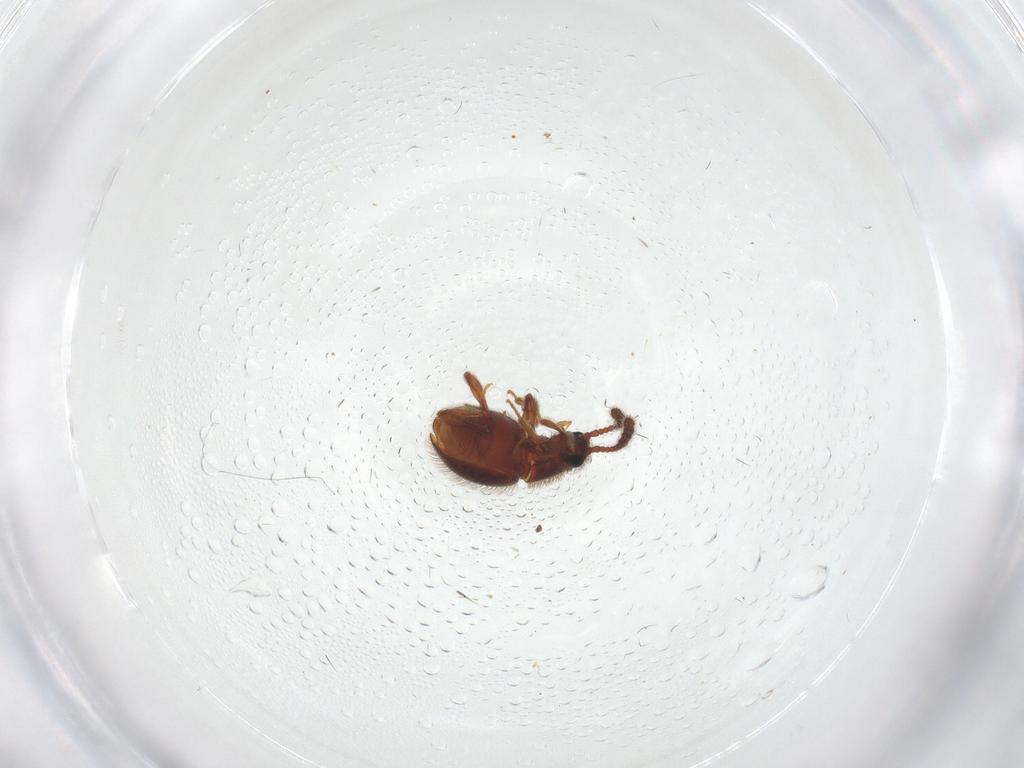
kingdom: Animalia
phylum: Arthropoda
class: Insecta
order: Coleoptera
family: Staphylinidae
